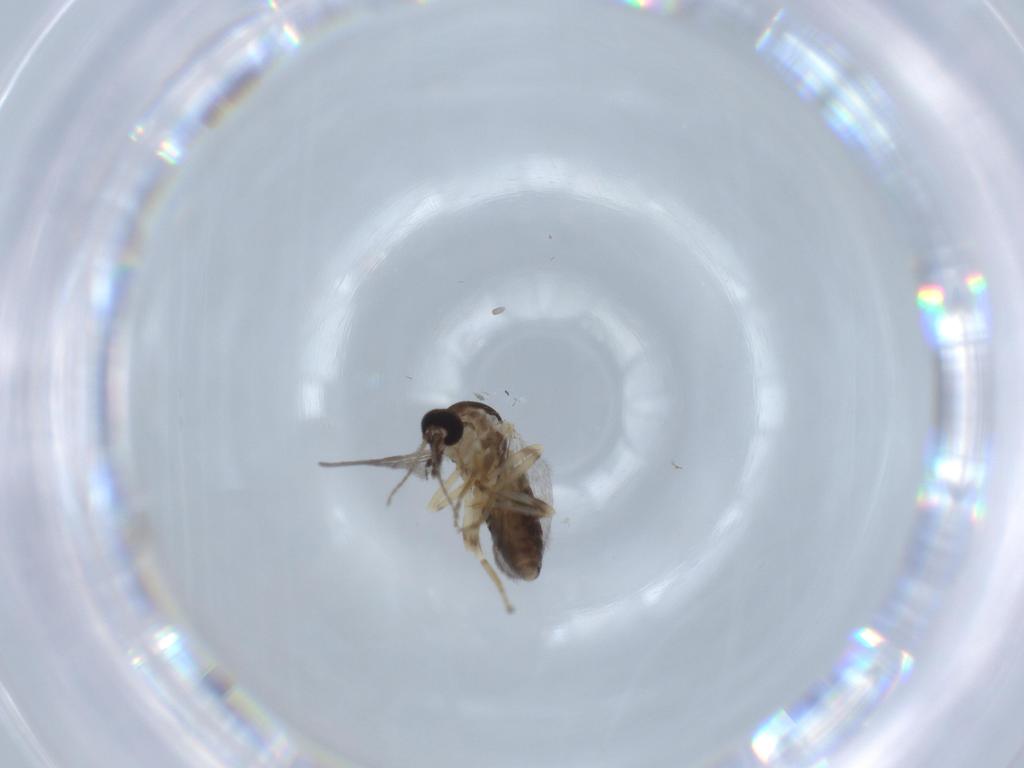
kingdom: Animalia
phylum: Arthropoda
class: Insecta
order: Diptera
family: Ceratopogonidae
